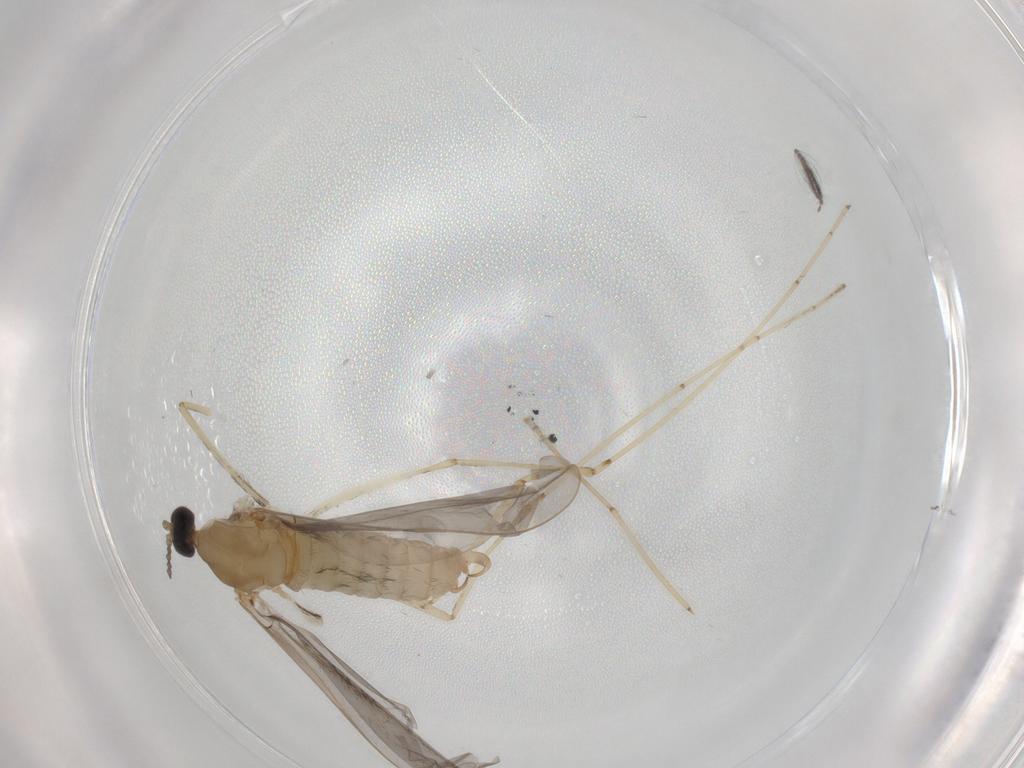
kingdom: Animalia
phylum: Arthropoda
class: Insecta
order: Diptera
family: Cecidomyiidae
